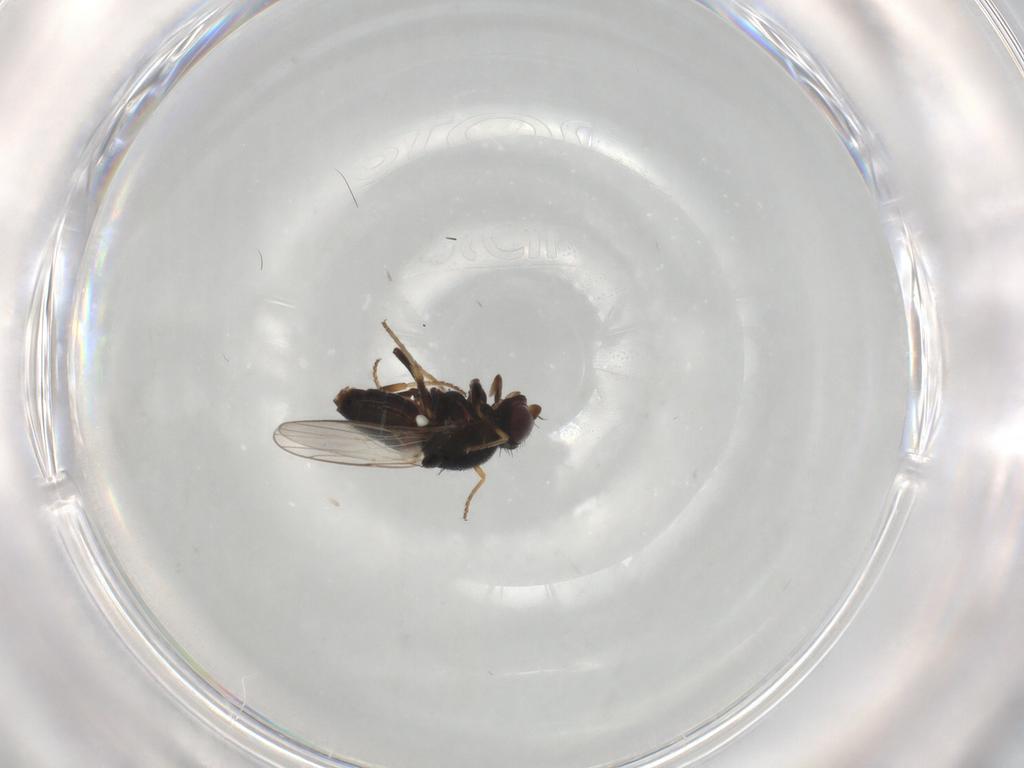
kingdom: Animalia
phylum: Arthropoda
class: Insecta
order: Diptera
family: Chloropidae
